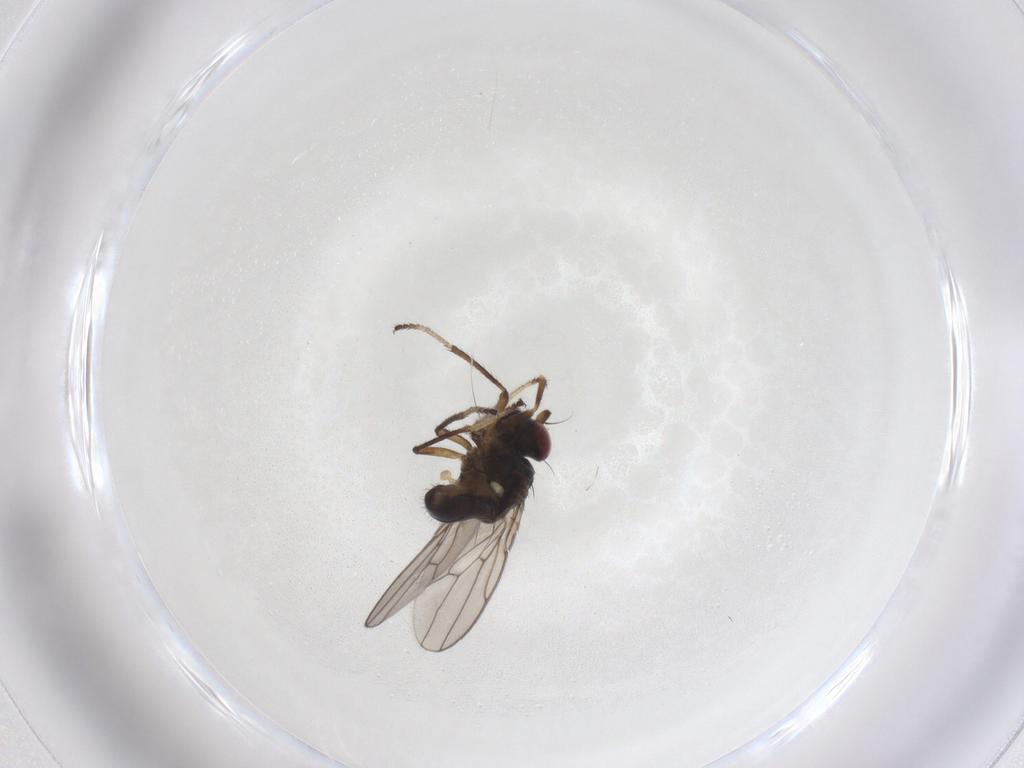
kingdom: Animalia
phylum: Arthropoda
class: Insecta
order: Diptera
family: Ephydridae
